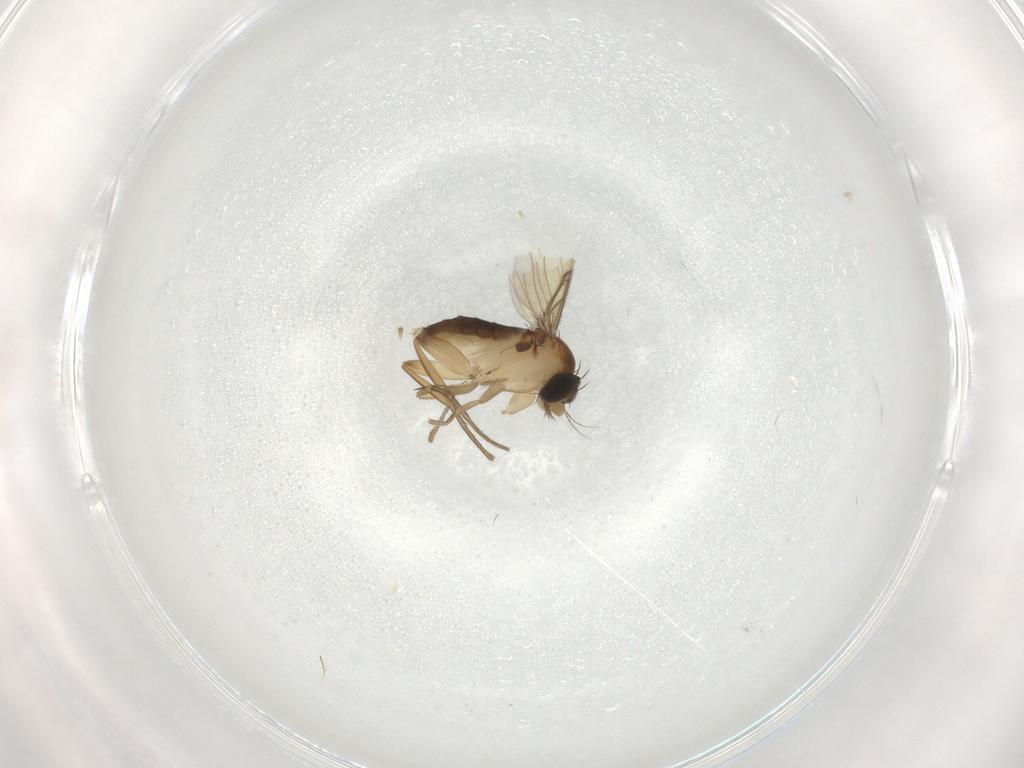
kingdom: Animalia
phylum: Arthropoda
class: Insecta
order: Diptera
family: Phoridae
